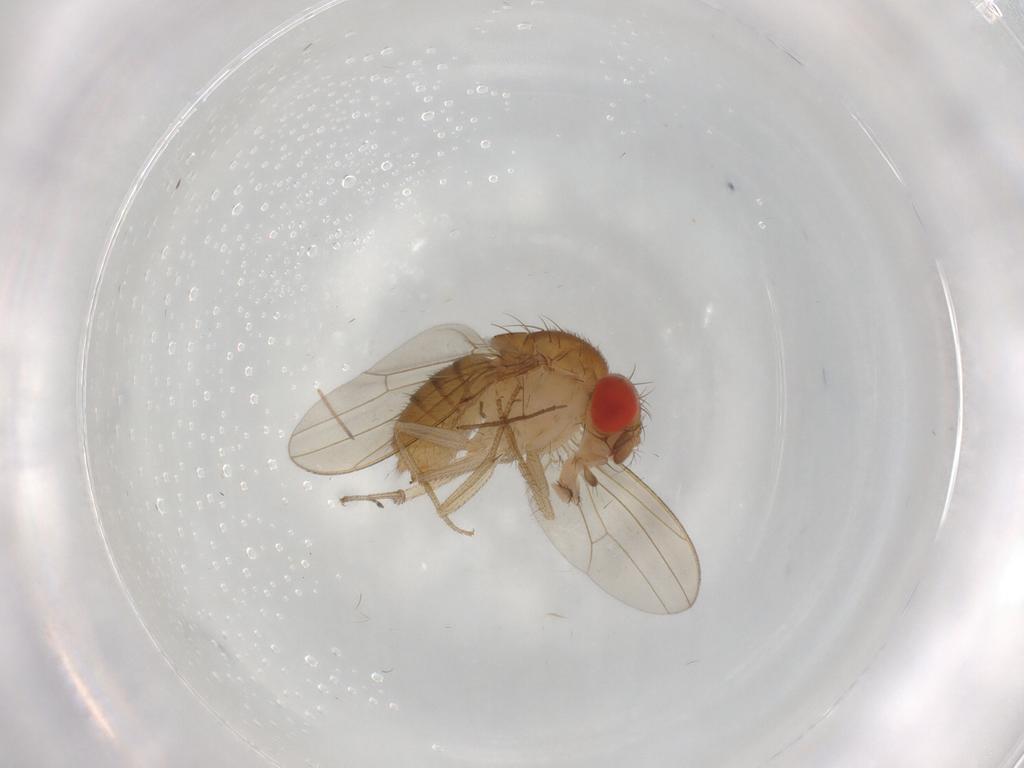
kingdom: Animalia
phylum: Arthropoda
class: Insecta
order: Diptera
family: Drosophilidae
